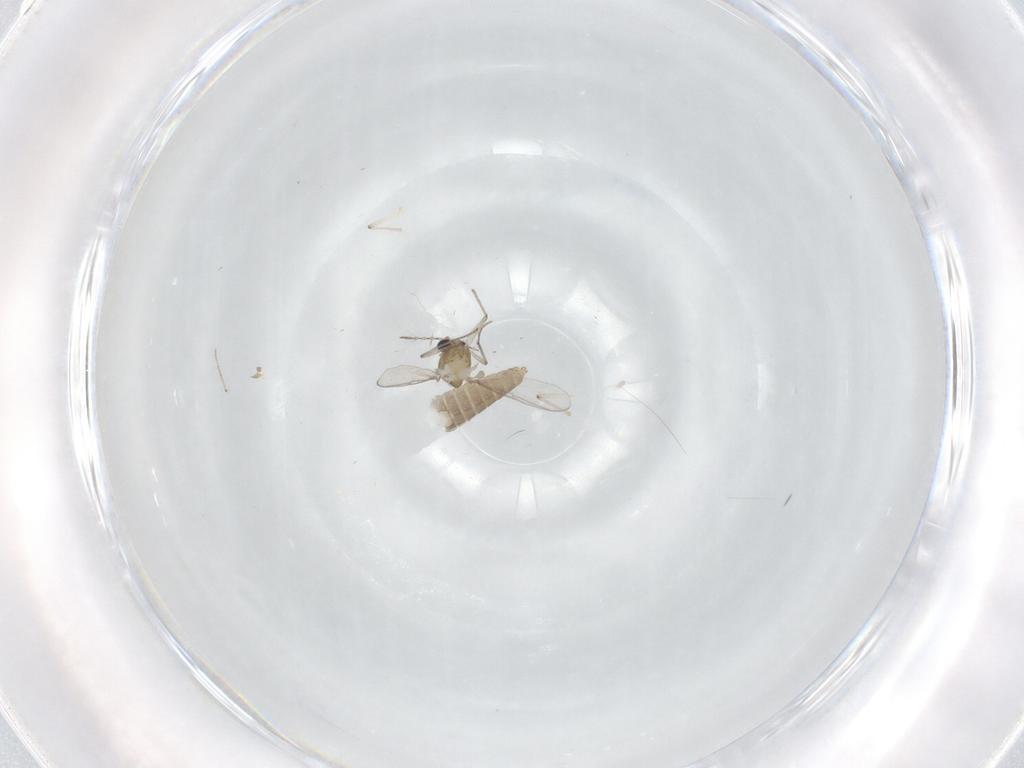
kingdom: Animalia
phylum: Arthropoda
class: Insecta
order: Diptera
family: Chironomidae
